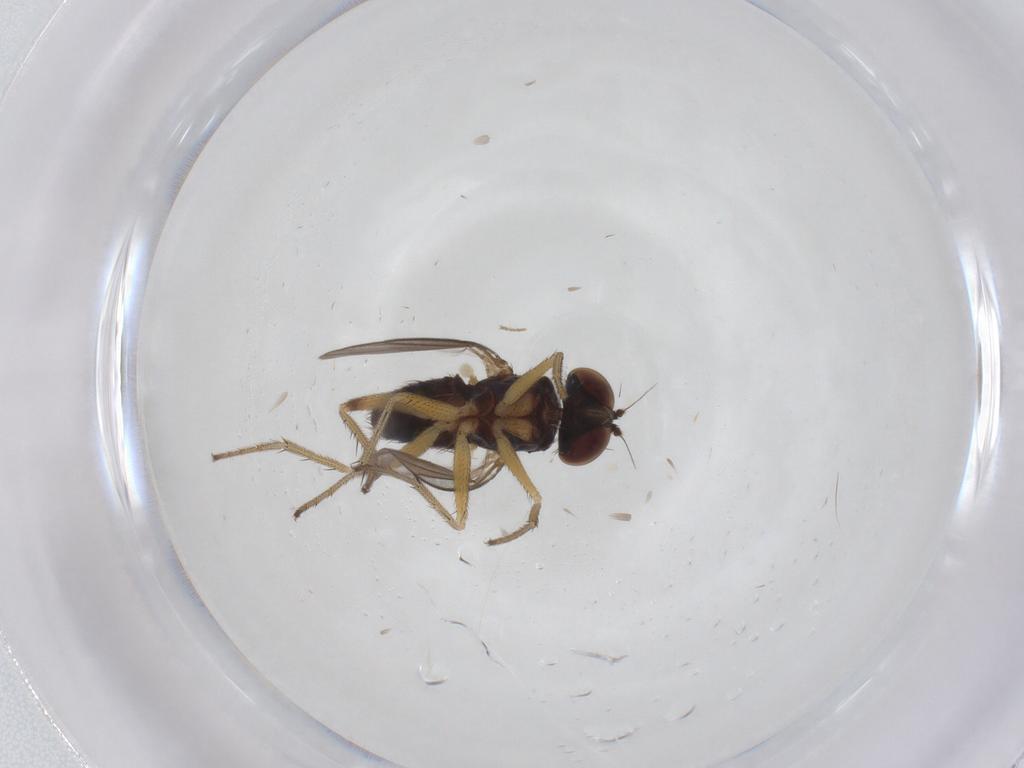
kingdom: Animalia
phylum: Arthropoda
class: Insecta
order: Diptera
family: Dolichopodidae
